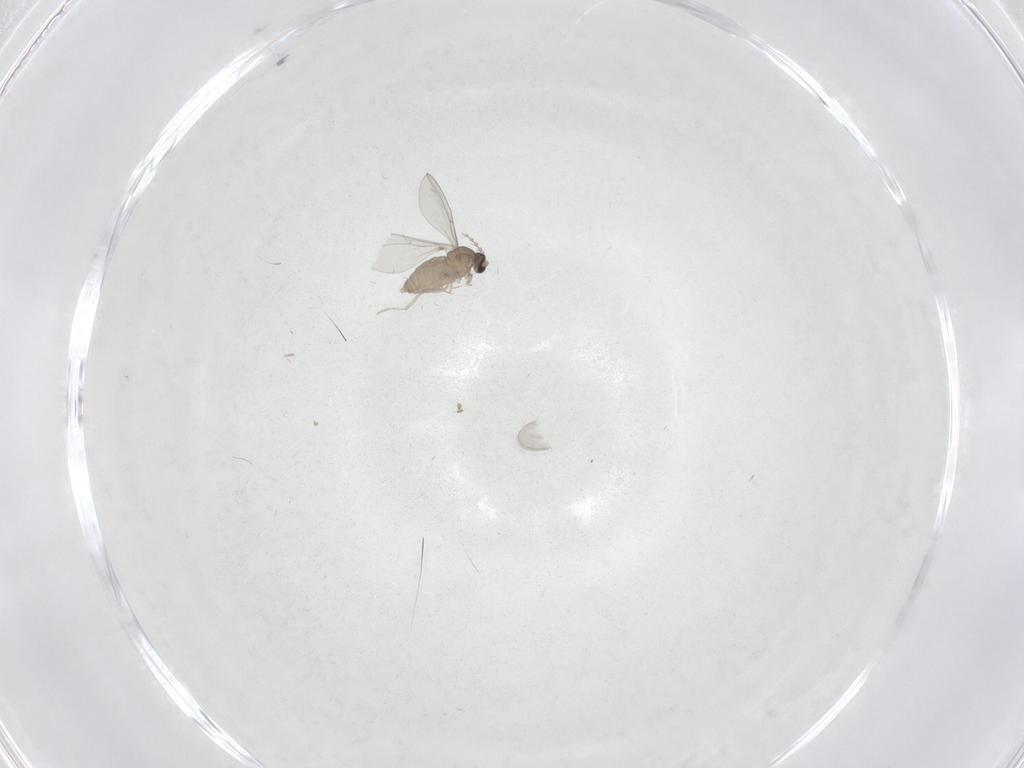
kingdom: Animalia
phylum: Arthropoda
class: Insecta
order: Diptera
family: Cecidomyiidae
